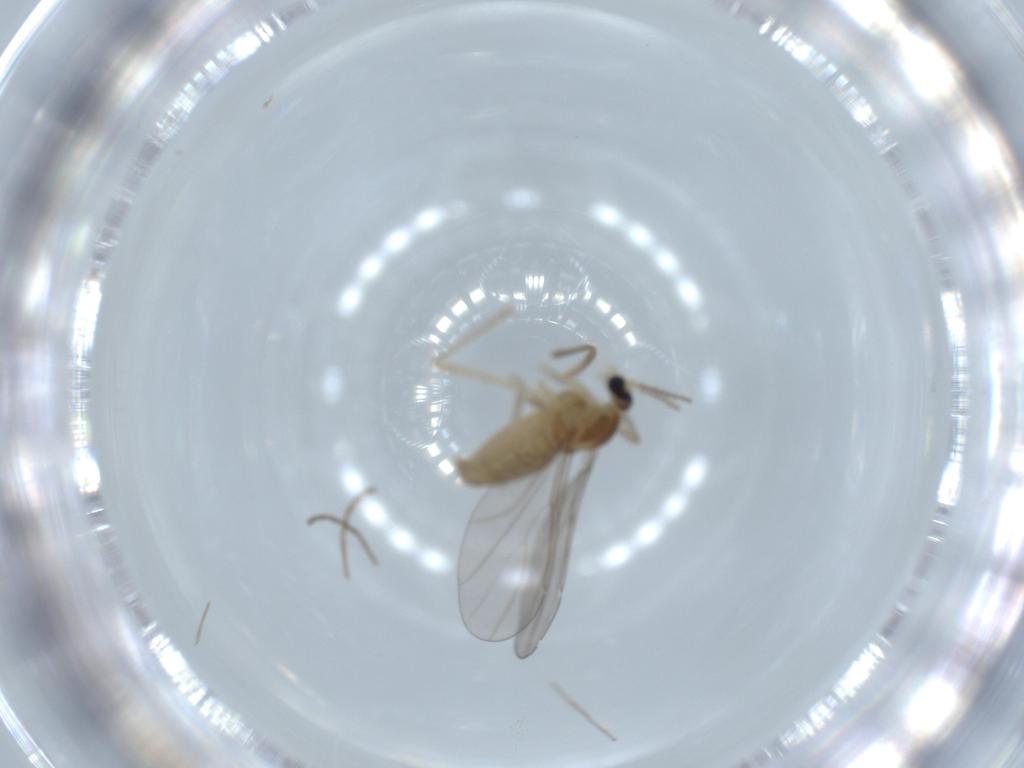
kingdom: Animalia
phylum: Arthropoda
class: Insecta
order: Diptera
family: Cecidomyiidae
